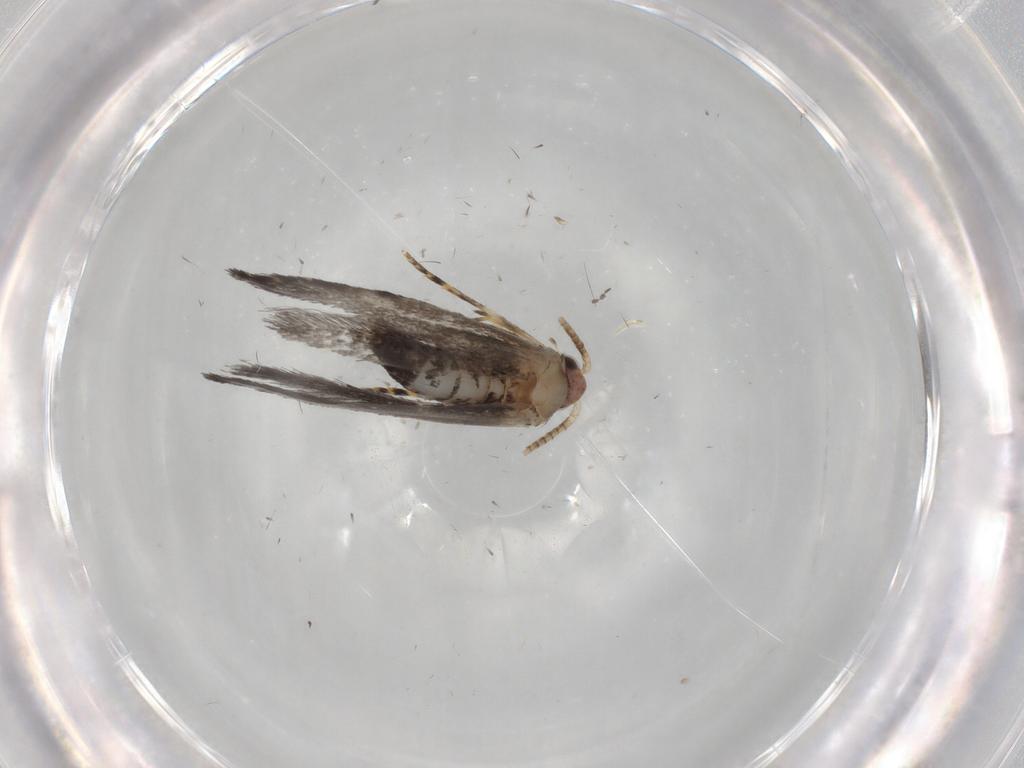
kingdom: Animalia
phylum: Arthropoda
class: Insecta
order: Lepidoptera
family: Tineidae
